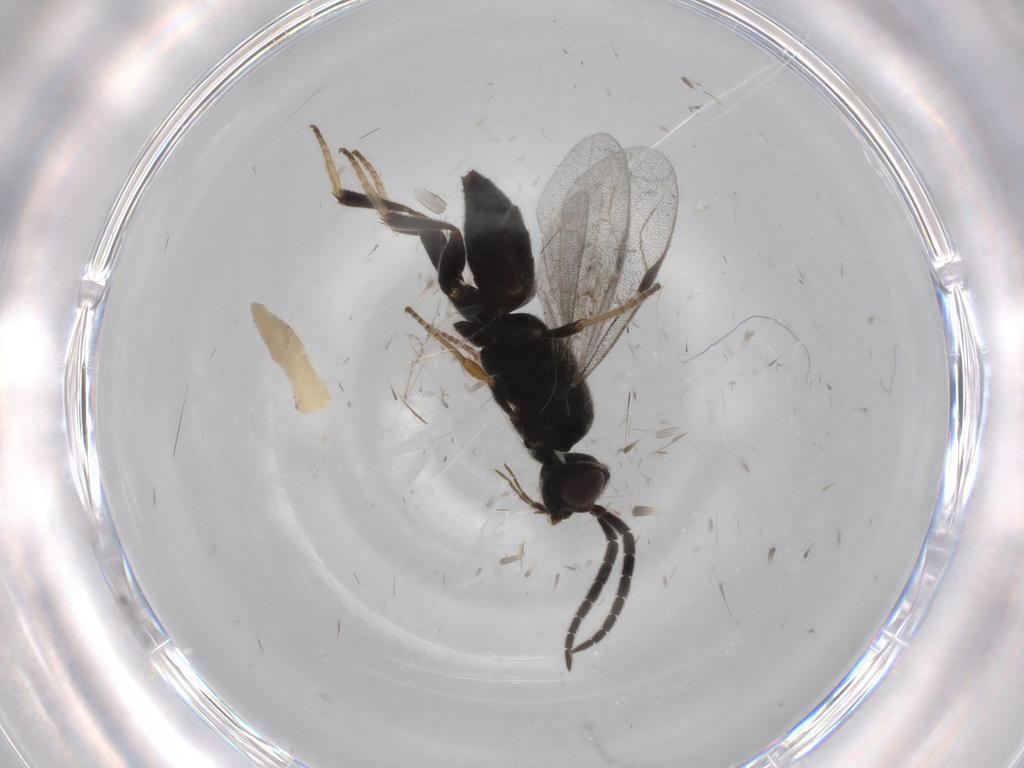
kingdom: Animalia
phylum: Arthropoda
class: Insecta
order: Hymenoptera
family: Dryinidae
